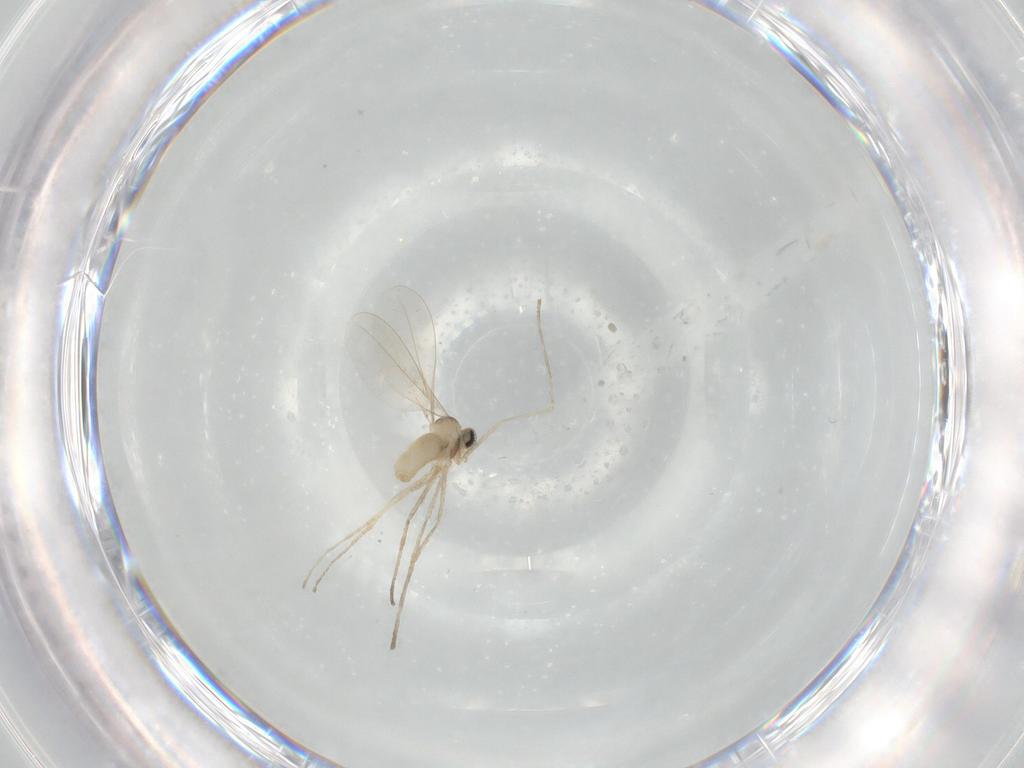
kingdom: Animalia
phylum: Arthropoda
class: Insecta
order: Diptera
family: Cecidomyiidae
